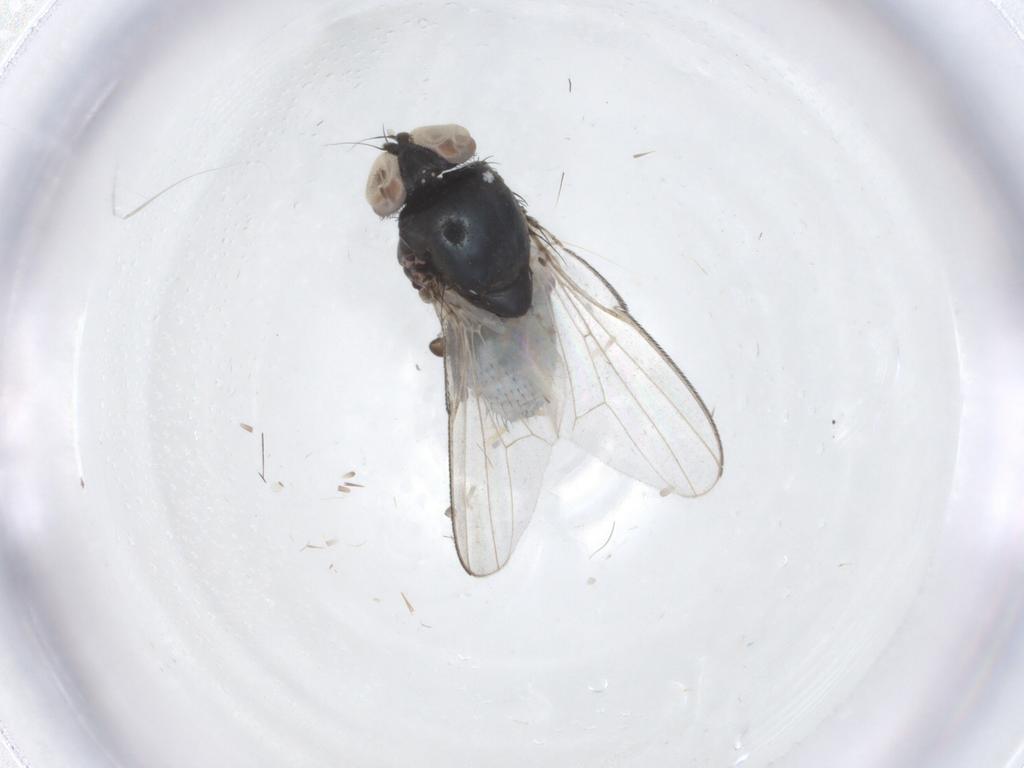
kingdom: Animalia
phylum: Arthropoda
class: Insecta
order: Diptera
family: Milichiidae
